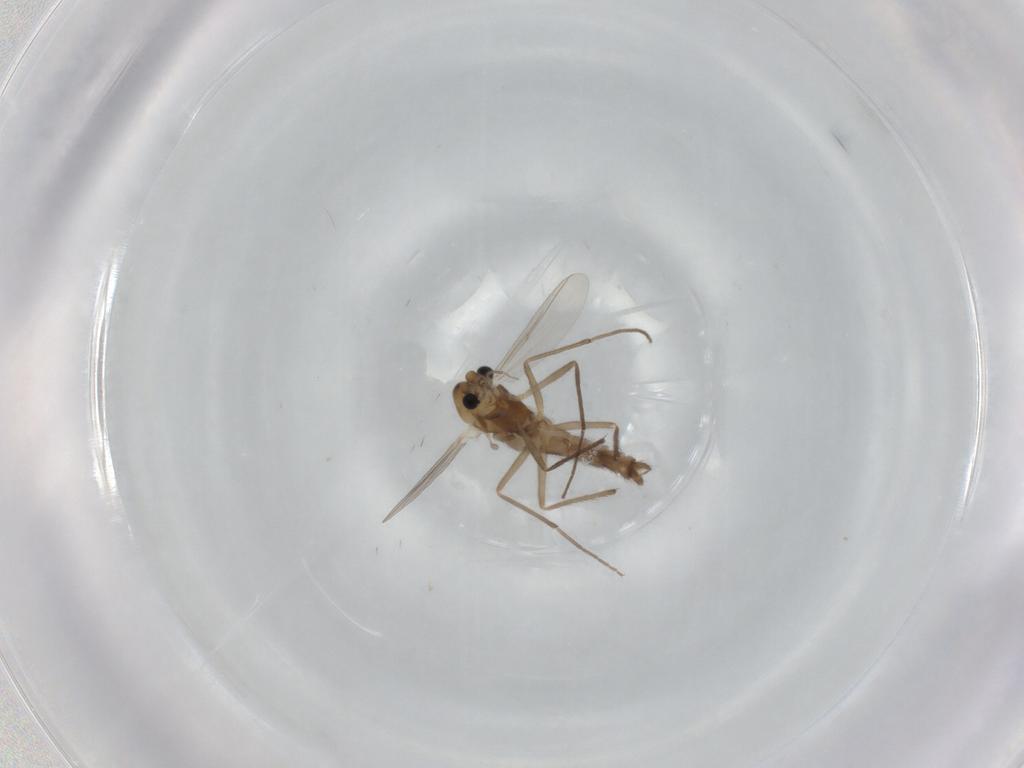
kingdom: Animalia
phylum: Arthropoda
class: Insecta
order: Diptera
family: Chironomidae
